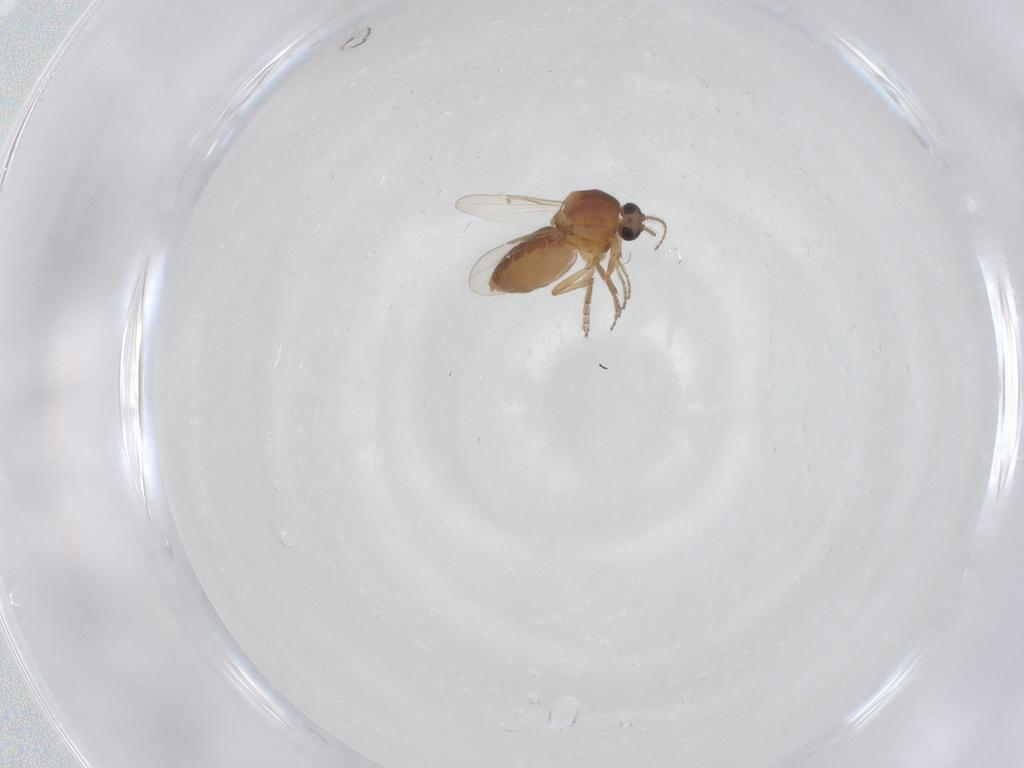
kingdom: Animalia
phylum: Arthropoda
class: Insecta
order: Diptera
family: Ceratopogonidae
